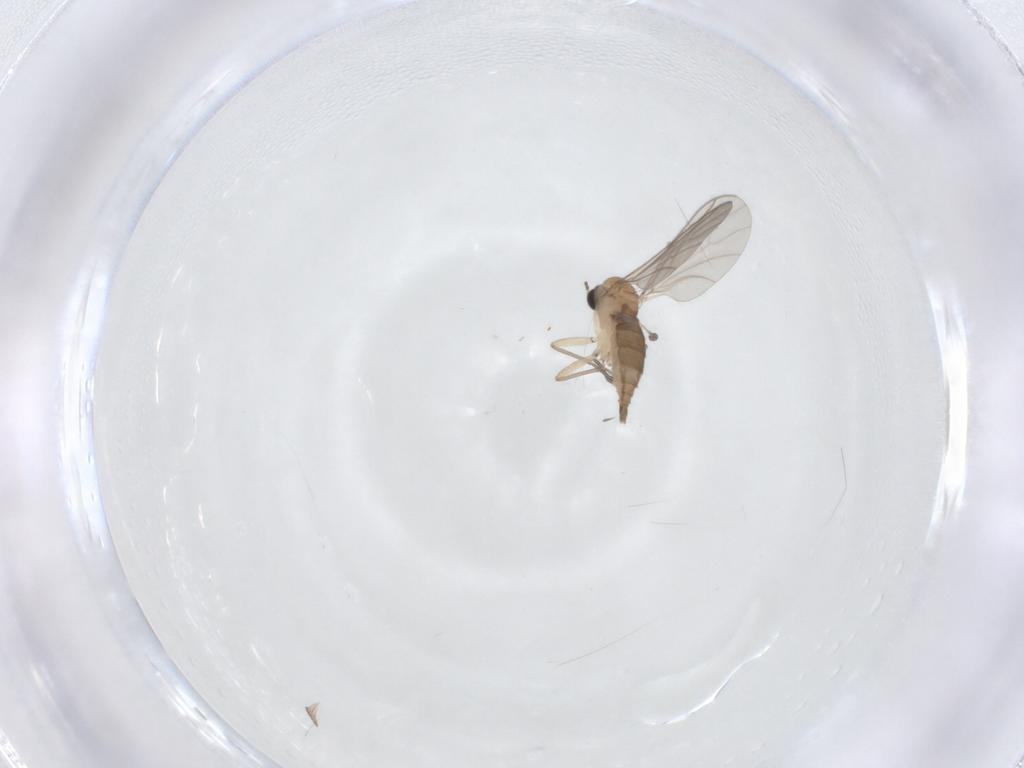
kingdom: Animalia
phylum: Arthropoda
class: Insecta
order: Diptera
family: Sciaridae
